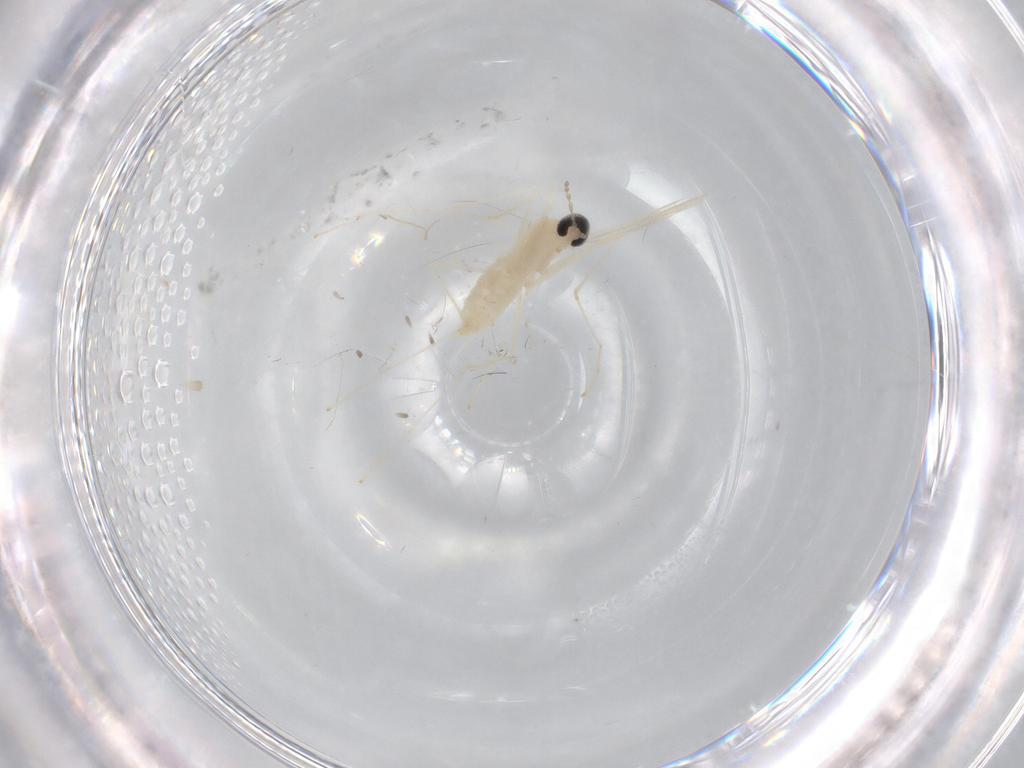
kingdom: Animalia
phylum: Arthropoda
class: Insecta
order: Diptera
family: Cecidomyiidae
